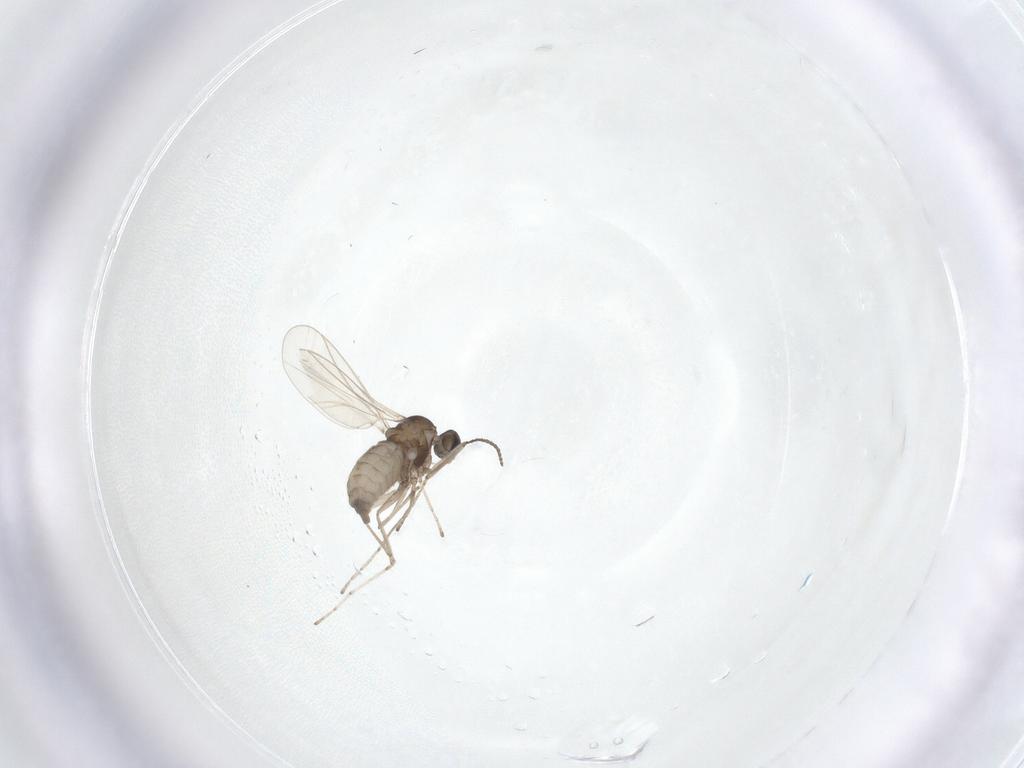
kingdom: Animalia
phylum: Arthropoda
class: Insecta
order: Diptera
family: Cecidomyiidae
